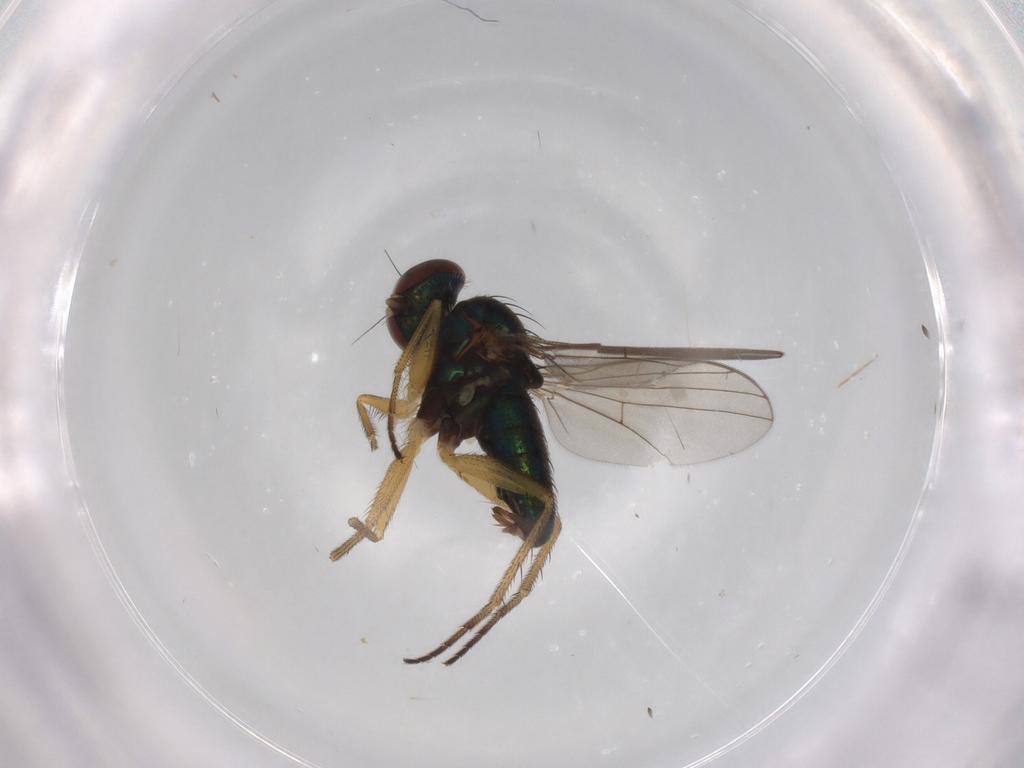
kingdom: Animalia
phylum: Arthropoda
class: Insecta
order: Diptera
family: Dolichopodidae
